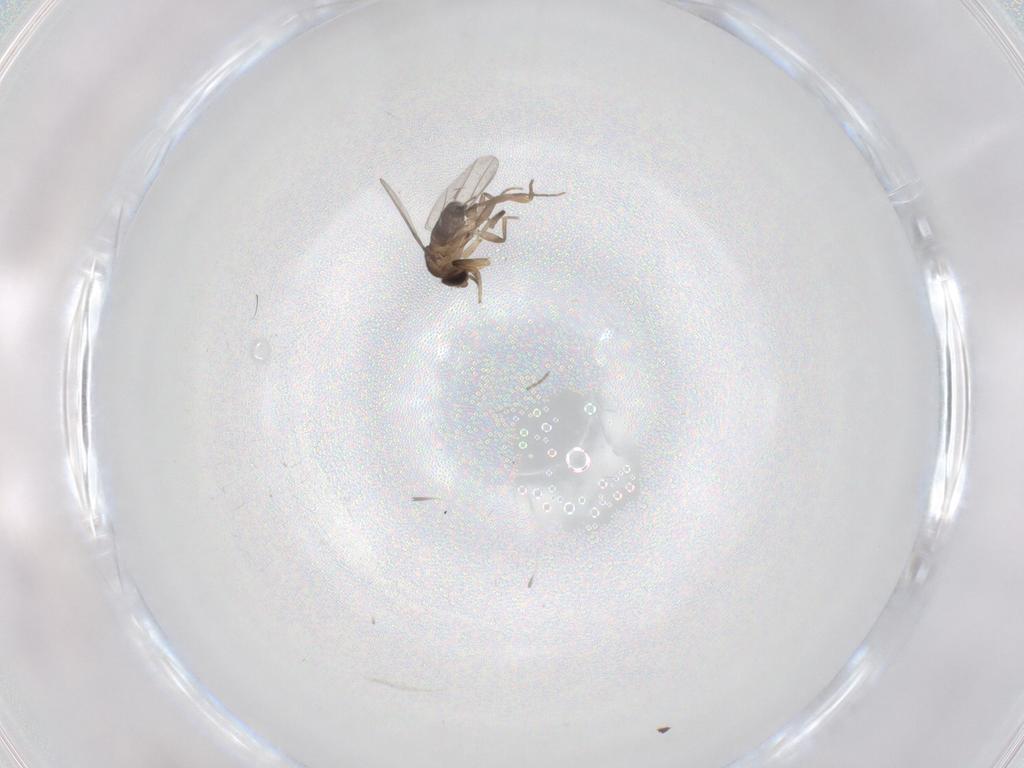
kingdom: Animalia
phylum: Arthropoda
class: Insecta
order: Diptera
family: Phoridae
